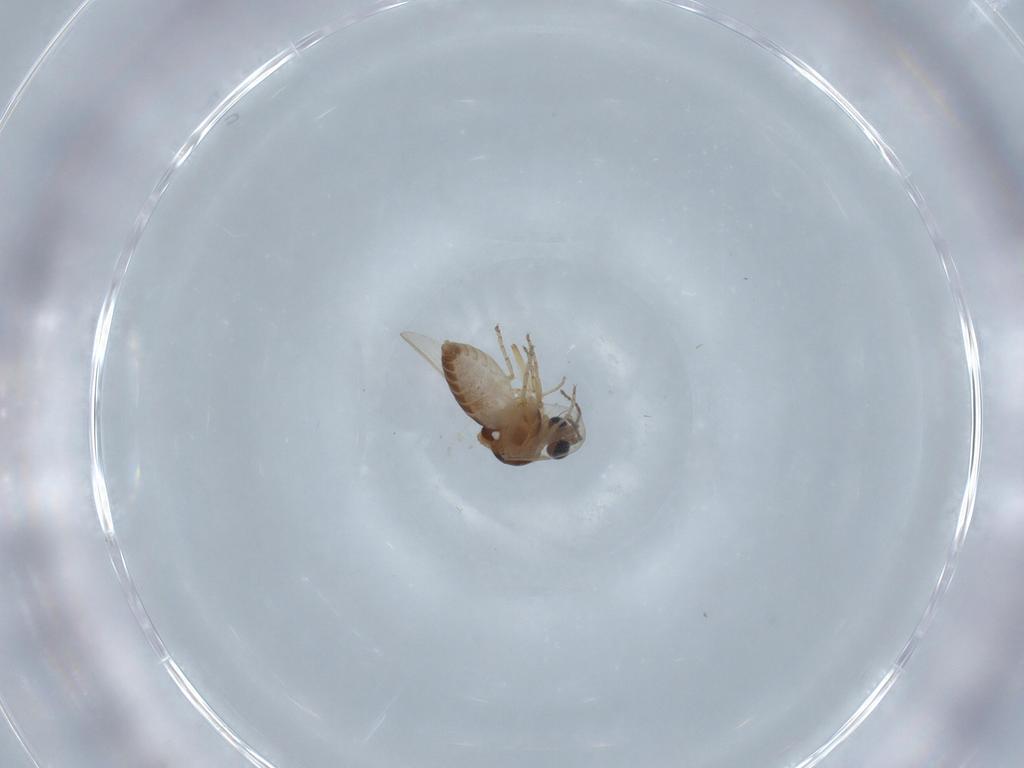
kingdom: Animalia
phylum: Arthropoda
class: Insecta
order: Diptera
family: Ceratopogonidae
